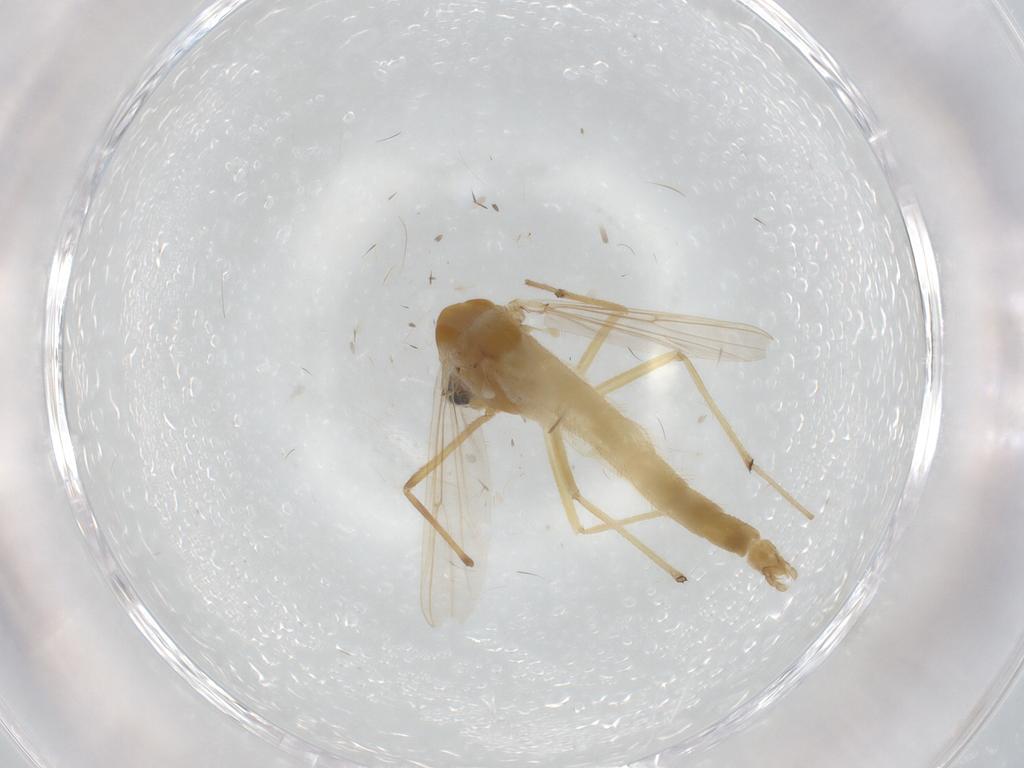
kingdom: Animalia
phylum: Arthropoda
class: Insecta
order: Diptera
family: Chironomidae
